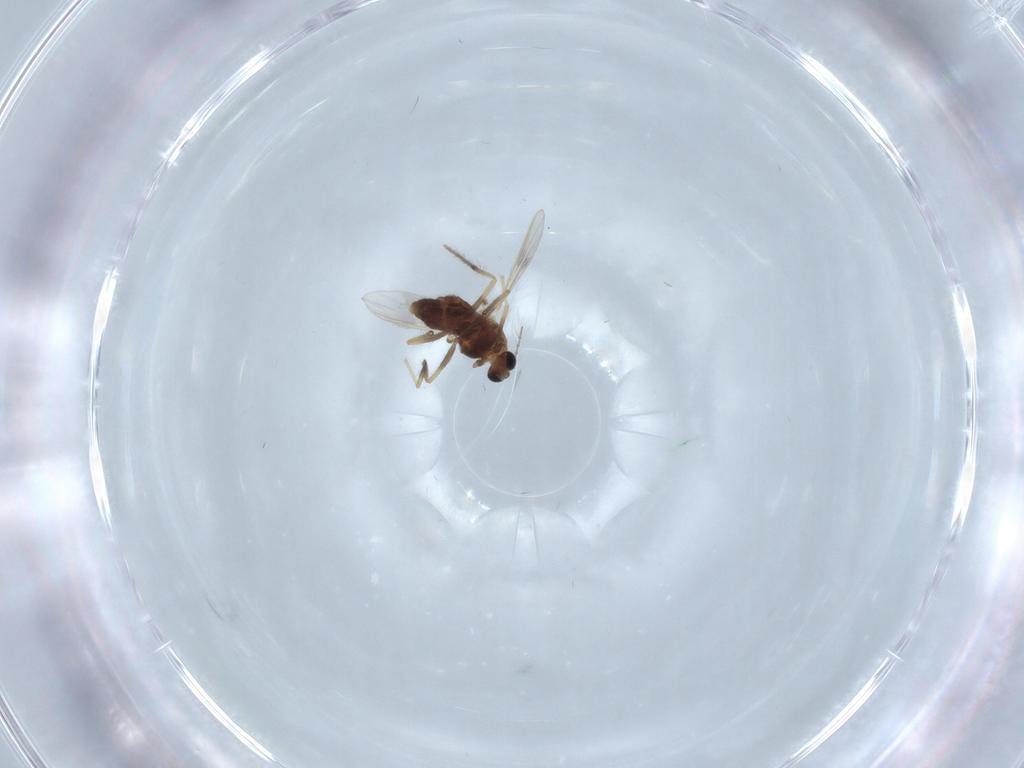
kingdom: Animalia
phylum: Arthropoda
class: Insecta
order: Diptera
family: Chironomidae
